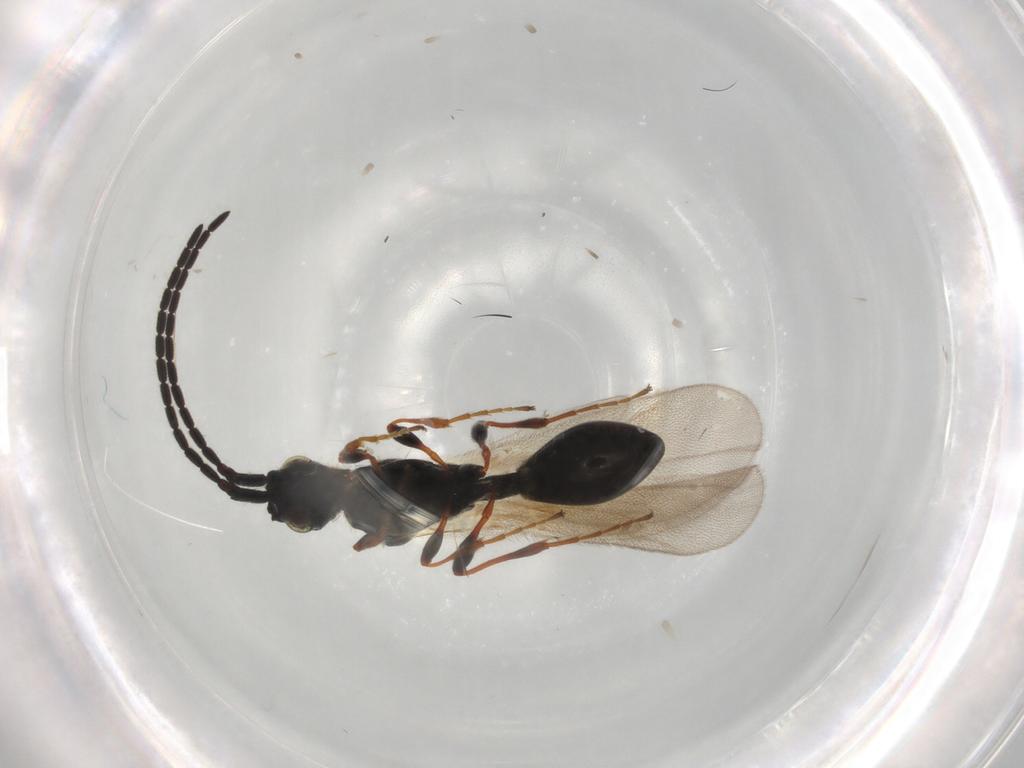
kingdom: Animalia
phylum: Arthropoda
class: Insecta
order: Hymenoptera
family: Diapriidae
